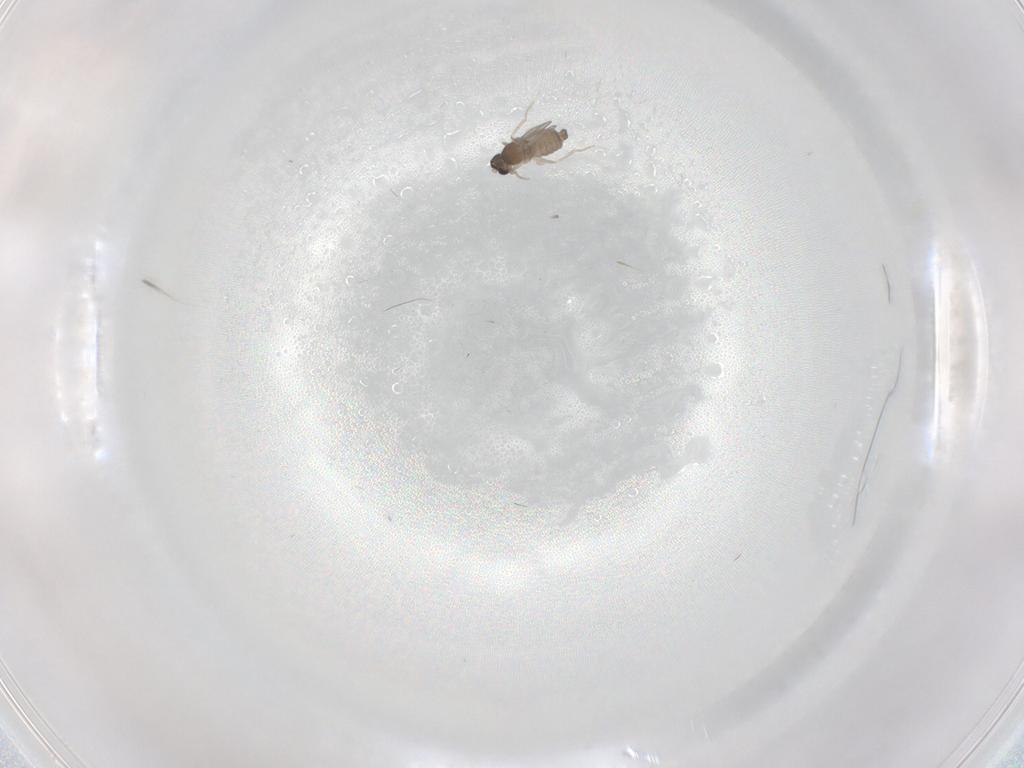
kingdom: Animalia
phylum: Arthropoda
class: Insecta
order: Diptera
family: Cecidomyiidae
